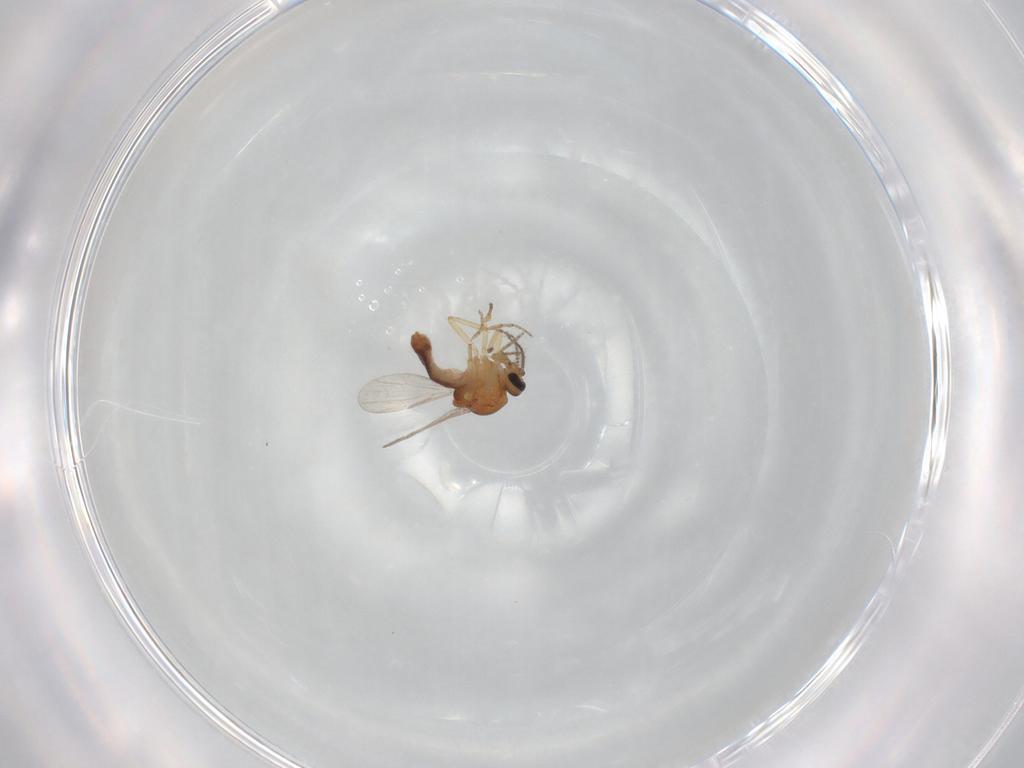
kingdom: Animalia
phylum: Arthropoda
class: Insecta
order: Diptera
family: Ceratopogonidae
